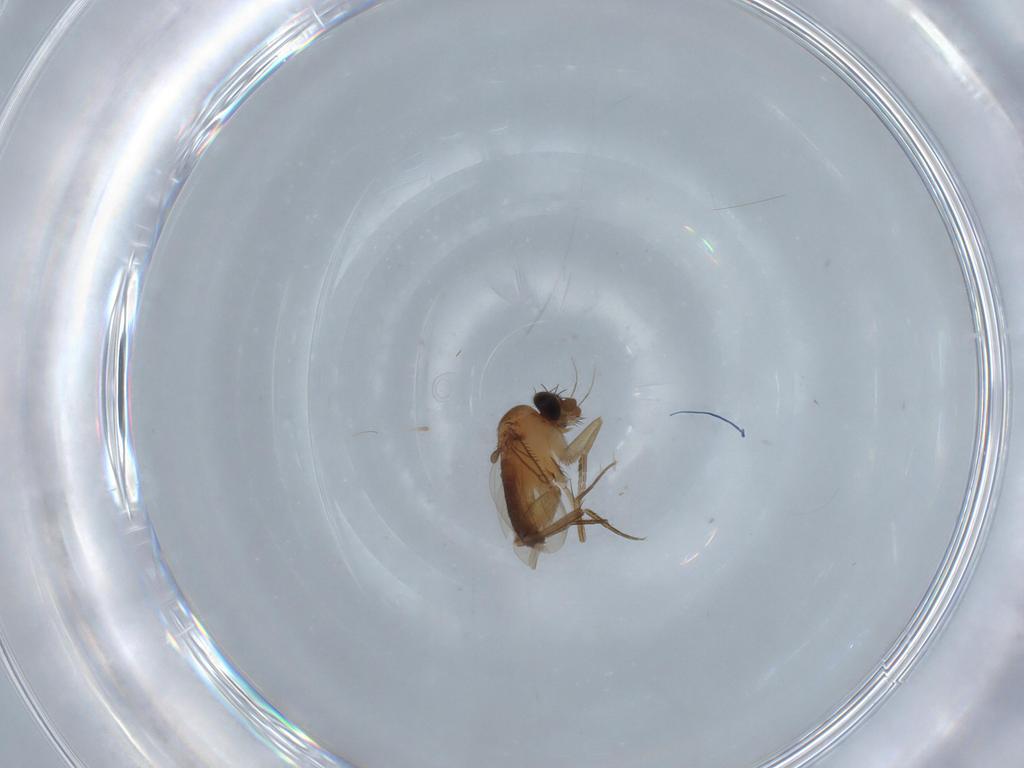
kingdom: Animalia
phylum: Arthropoda
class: Insecta
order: Diptera
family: Phoridae
